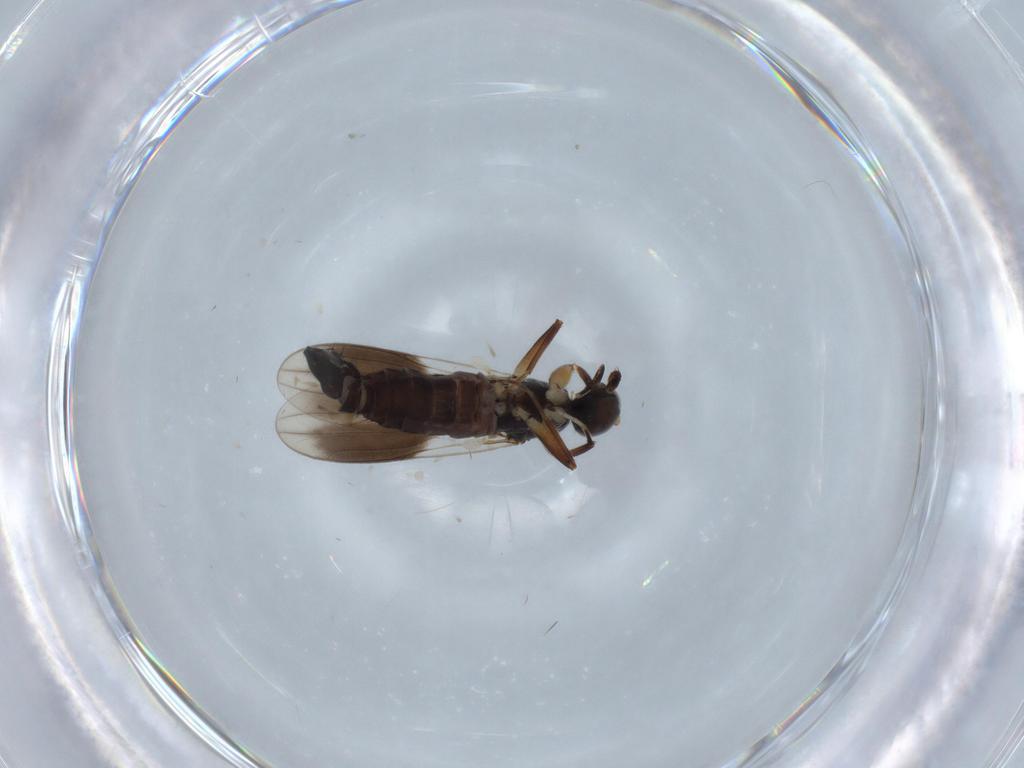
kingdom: Animalia
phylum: Arthropoda
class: Insecta
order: Diptera
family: Hybotidae
